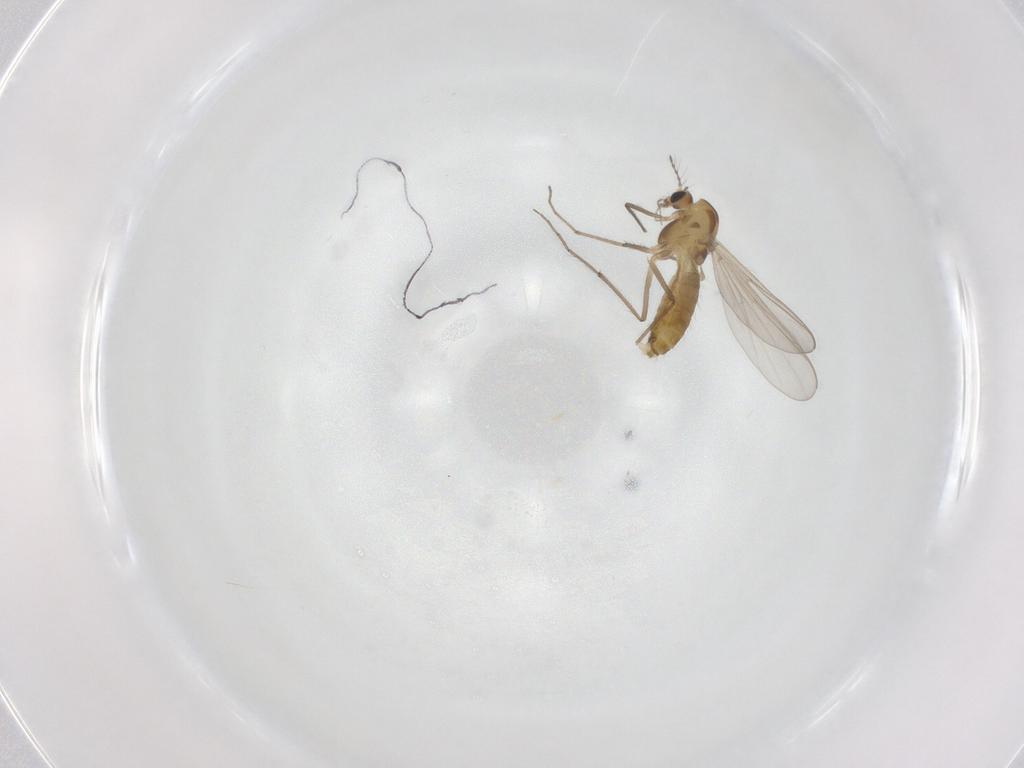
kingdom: Animalia
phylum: Arthropoda
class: Insecta
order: Diptera
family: Chironomidae
